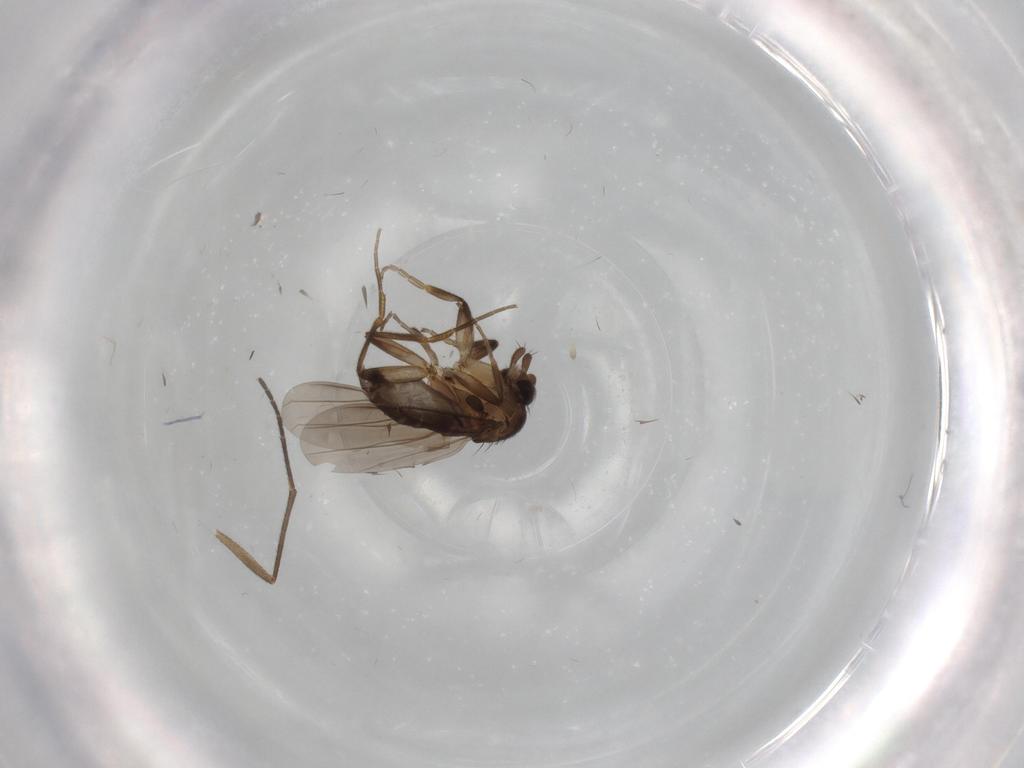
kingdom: Animalia
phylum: Arthropoda
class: Insecta
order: Diptera
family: Phoridae
